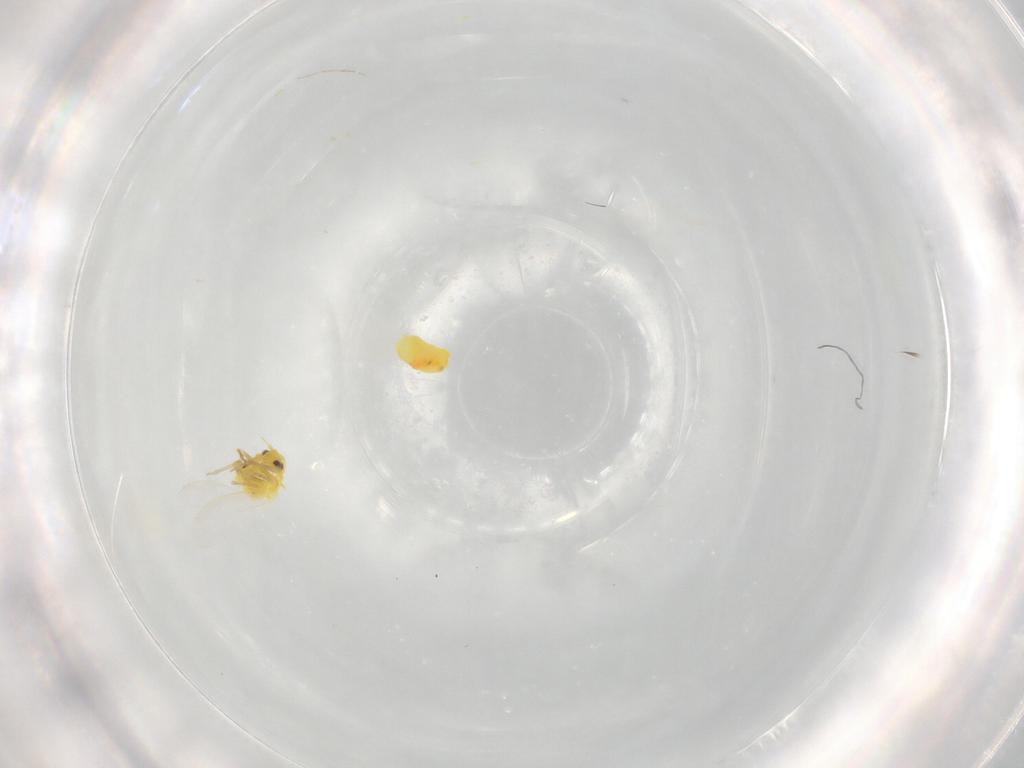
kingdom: Animalia
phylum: Arthropoda
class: Insecta
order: Hemiptera
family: Aleyrodidae
